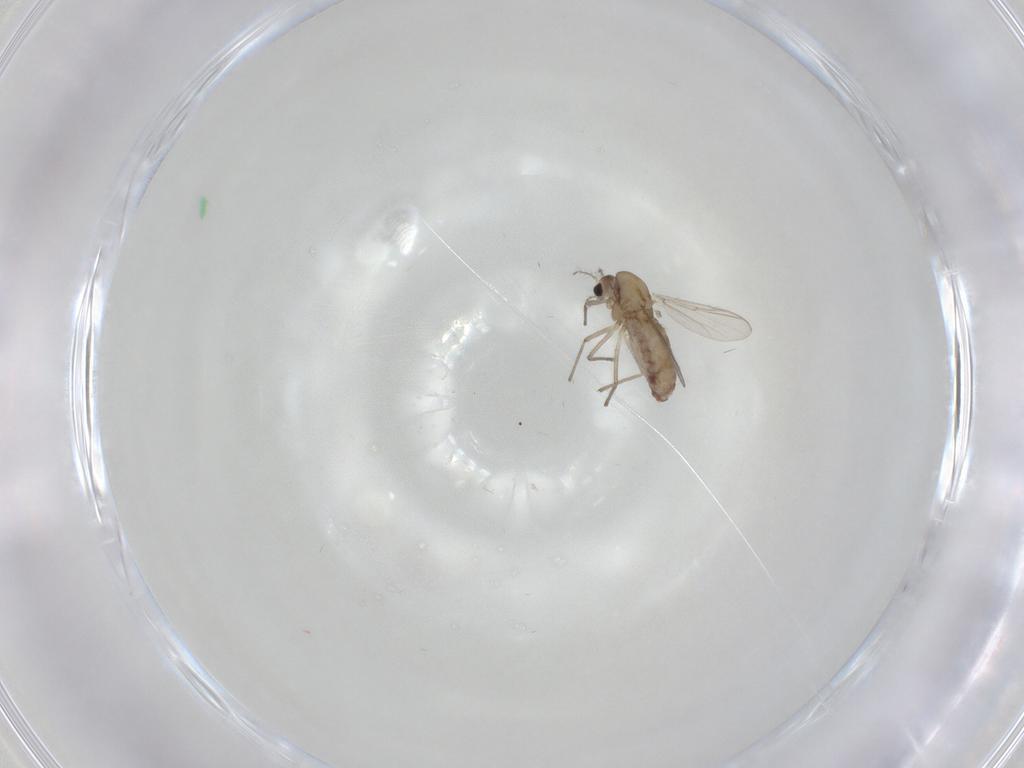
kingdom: Animalia
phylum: Arthropoda
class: Insecta
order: Diptera
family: Chironomidae
